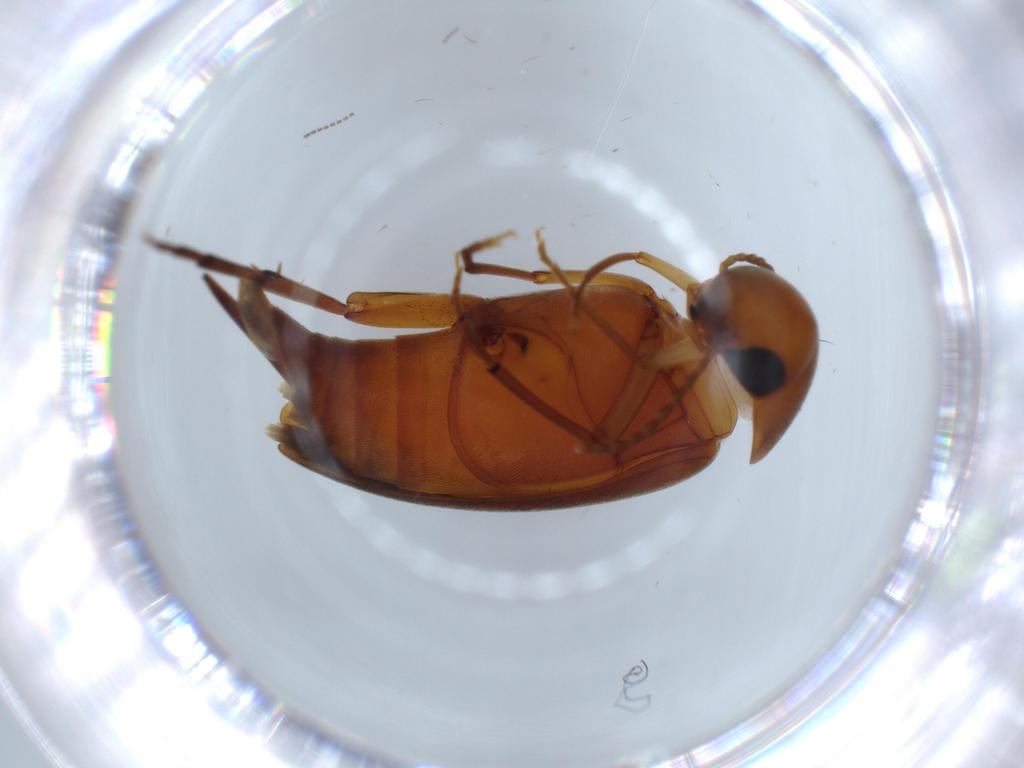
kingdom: Animalia
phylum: Arthropoda
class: Insecta
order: Coleoptera
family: Mordellidae
